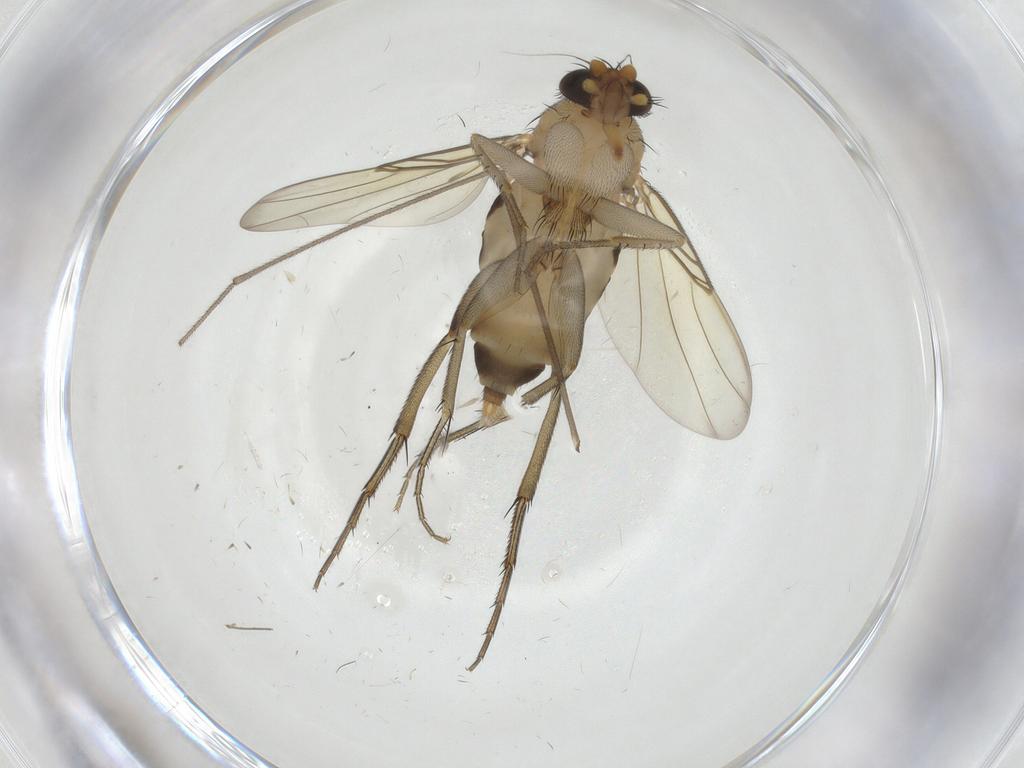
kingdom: Animalia
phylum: Arthropoda
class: Insecta
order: Diptera
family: Phoridae
